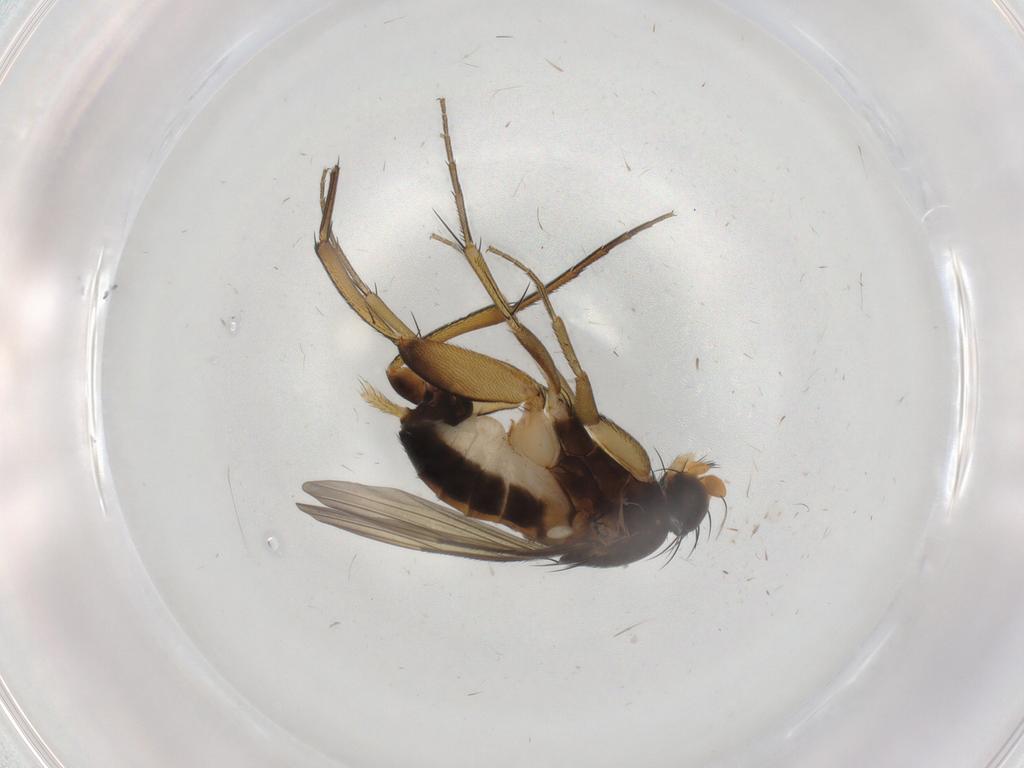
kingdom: Animalia
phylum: Arthropoda
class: Insecta
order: Diptera
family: Phoridae
